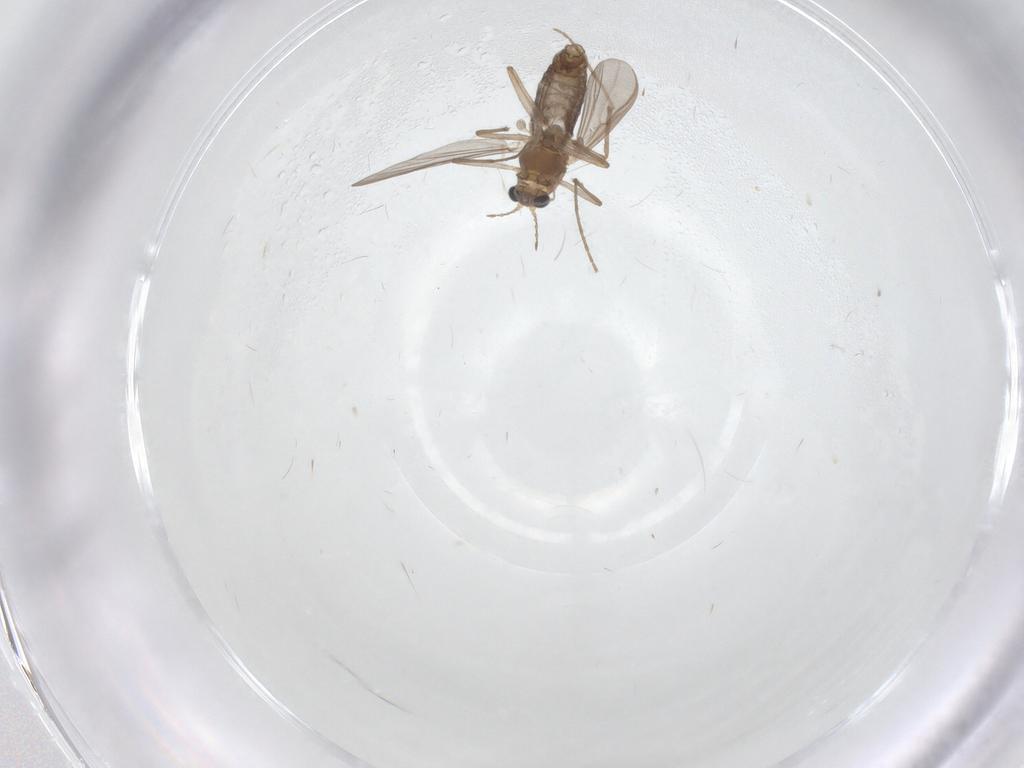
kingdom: Animalia
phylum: Arthropoda
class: Insecta
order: Diptera
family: Chironomidae
